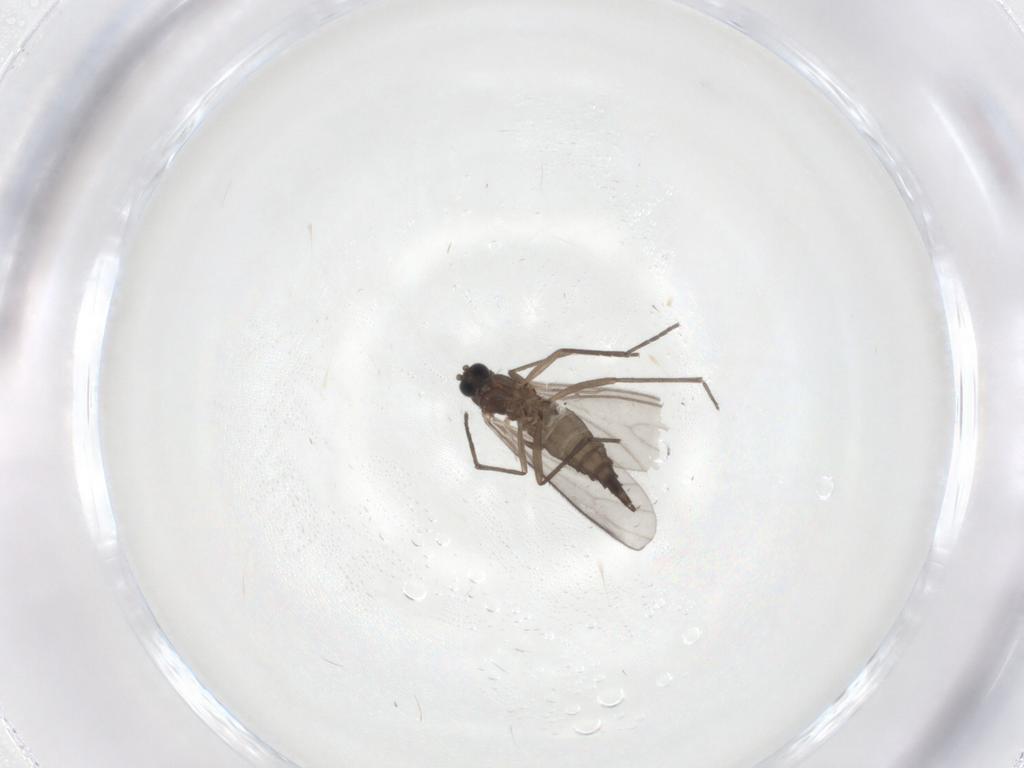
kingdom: Animalia
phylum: Arthropoda
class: Insecta
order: Diptera
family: Sciaridae
